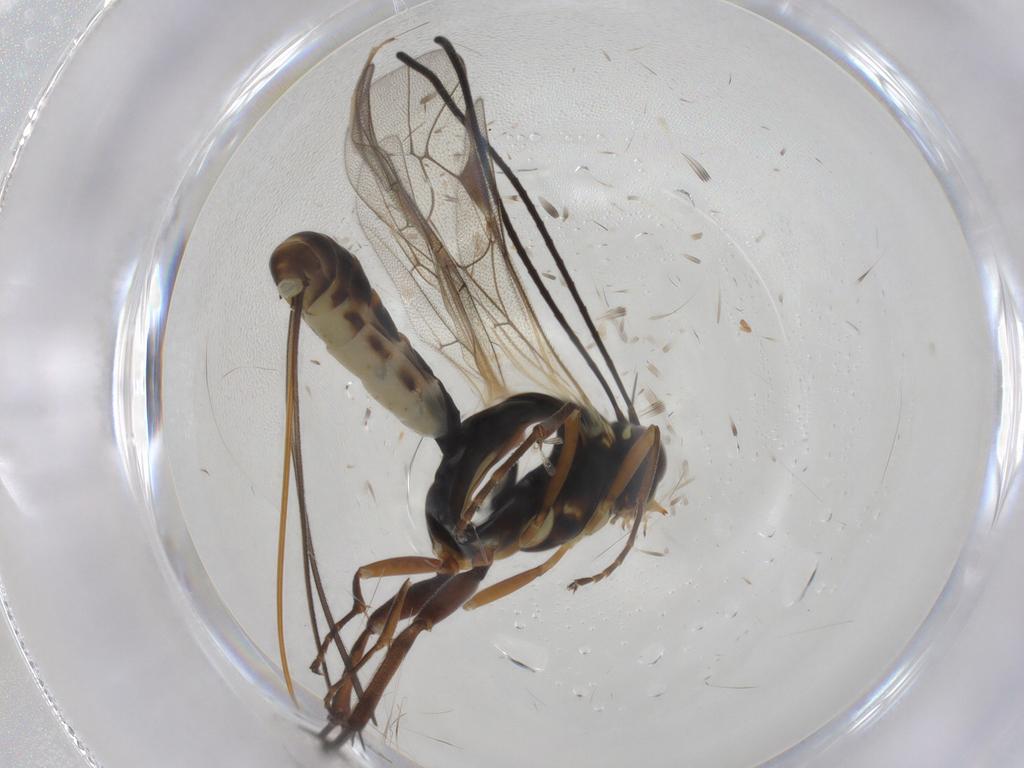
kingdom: Animalia
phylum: Arthropoda
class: Insecta
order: Hymenoptera
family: Ichneumonidae
